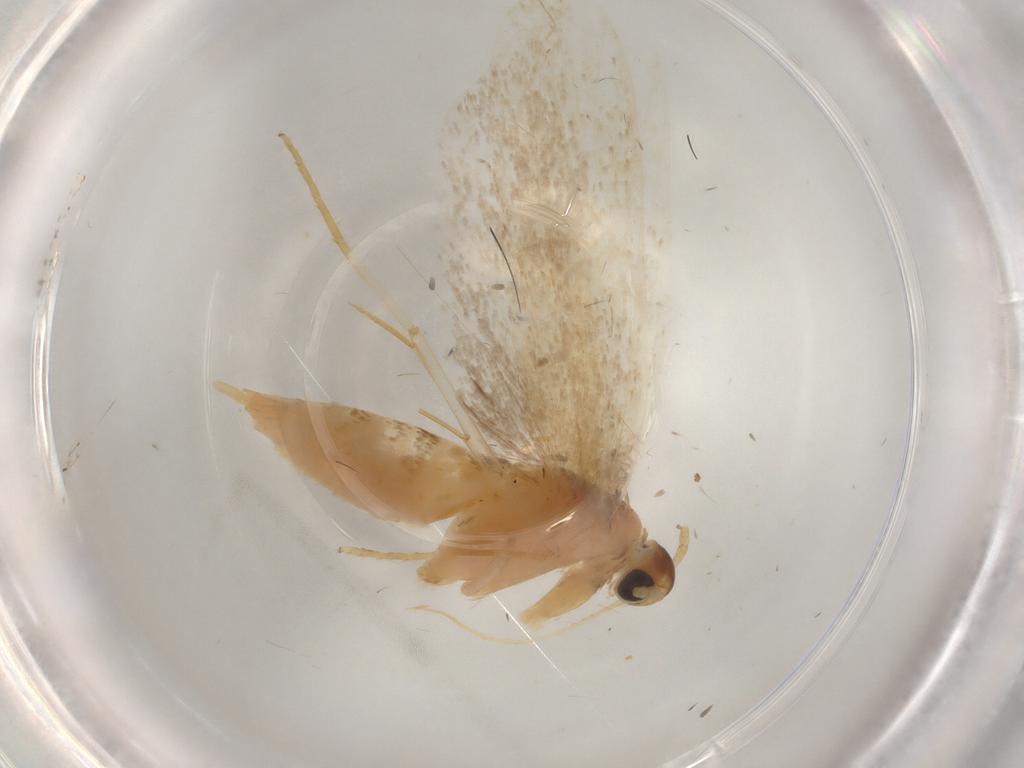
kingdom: Animalia
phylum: Arthropoda
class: Insecta
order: Lepidoptera
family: Lecithoceridae
